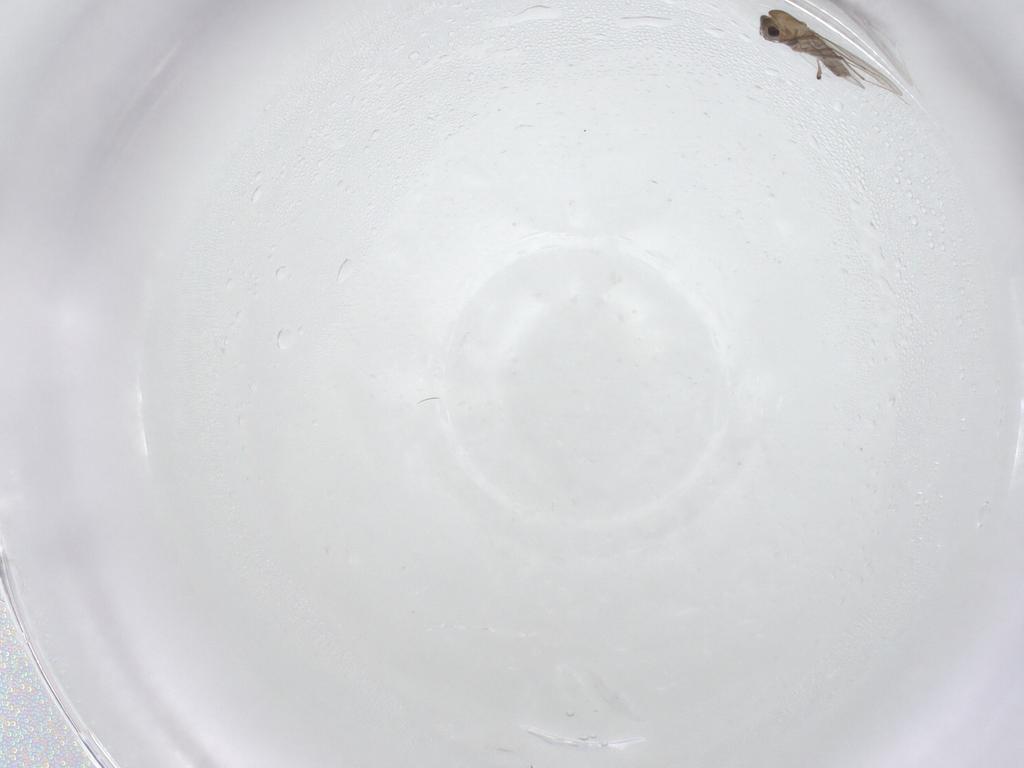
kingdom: Animalia
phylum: Arthropoda
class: Insecta
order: Diptera
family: Chironomidae
